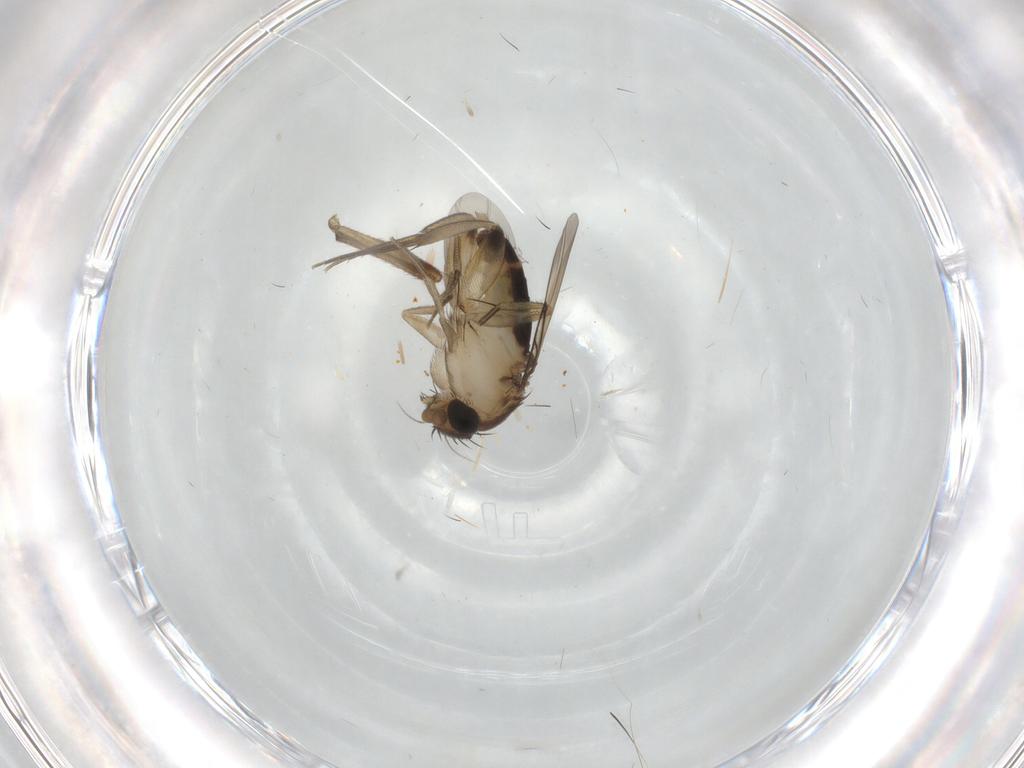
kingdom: Animalia
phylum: Arthropoda
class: Insecta
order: Diptera
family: Phoridae
